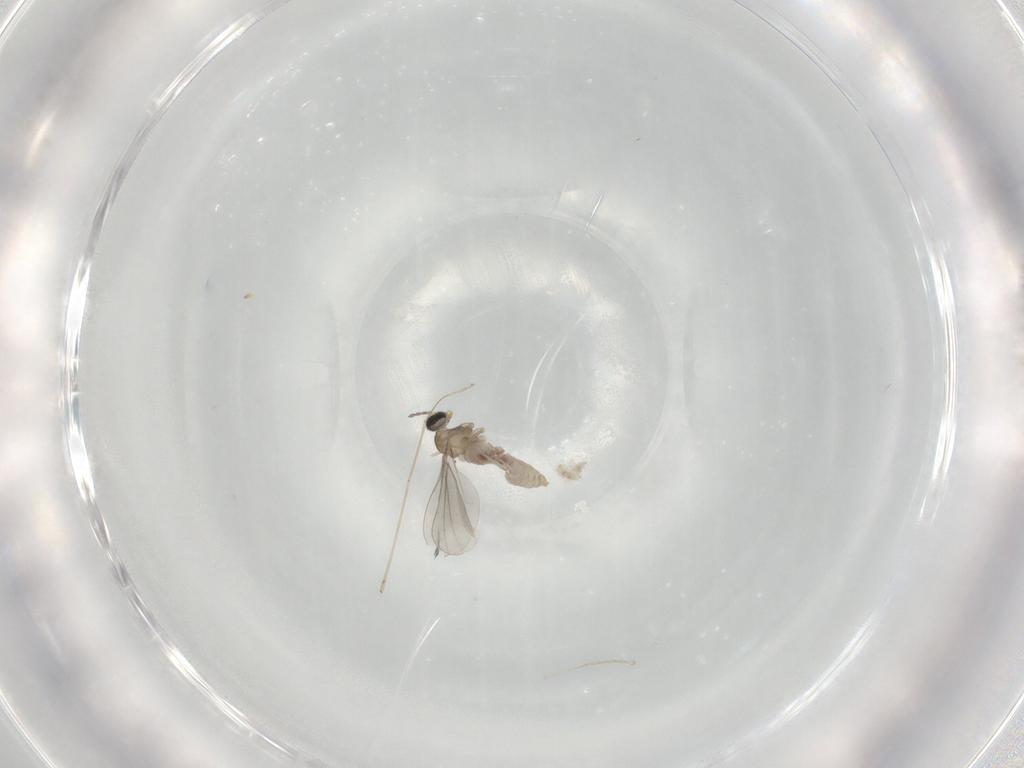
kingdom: Animalia
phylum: Arthropoda
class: Insecta
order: Diptera
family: Cecidomyiidae
